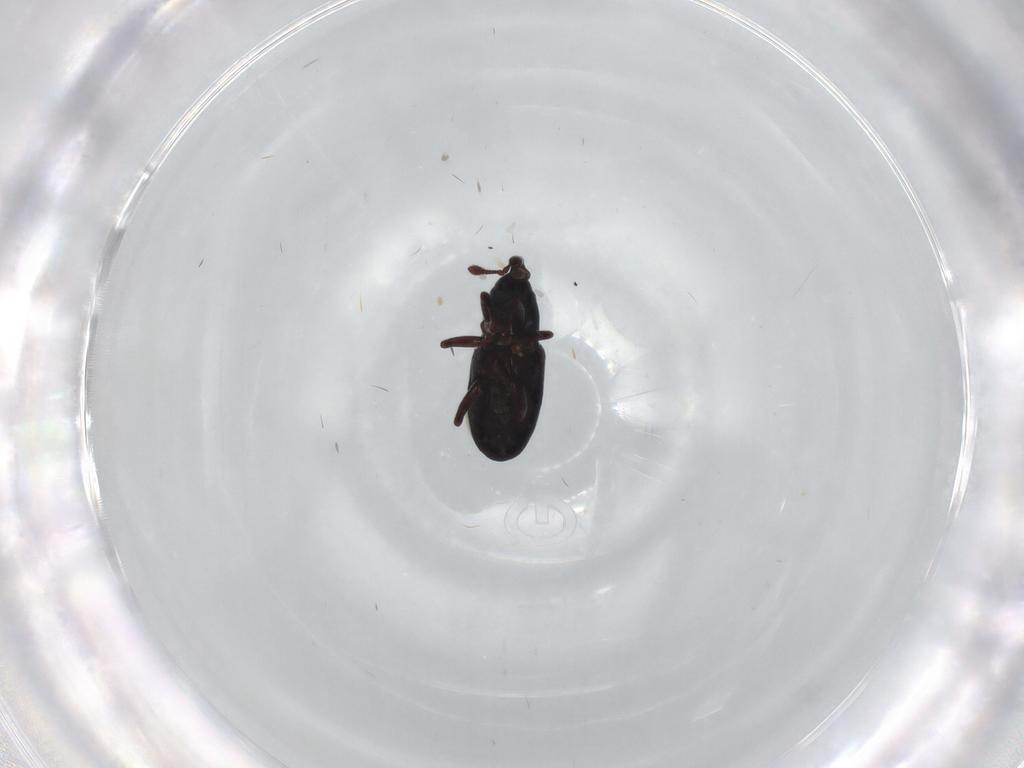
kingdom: Animalia
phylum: Arthropoda
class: Insecta
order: Coleoptera
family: Curculionidae
